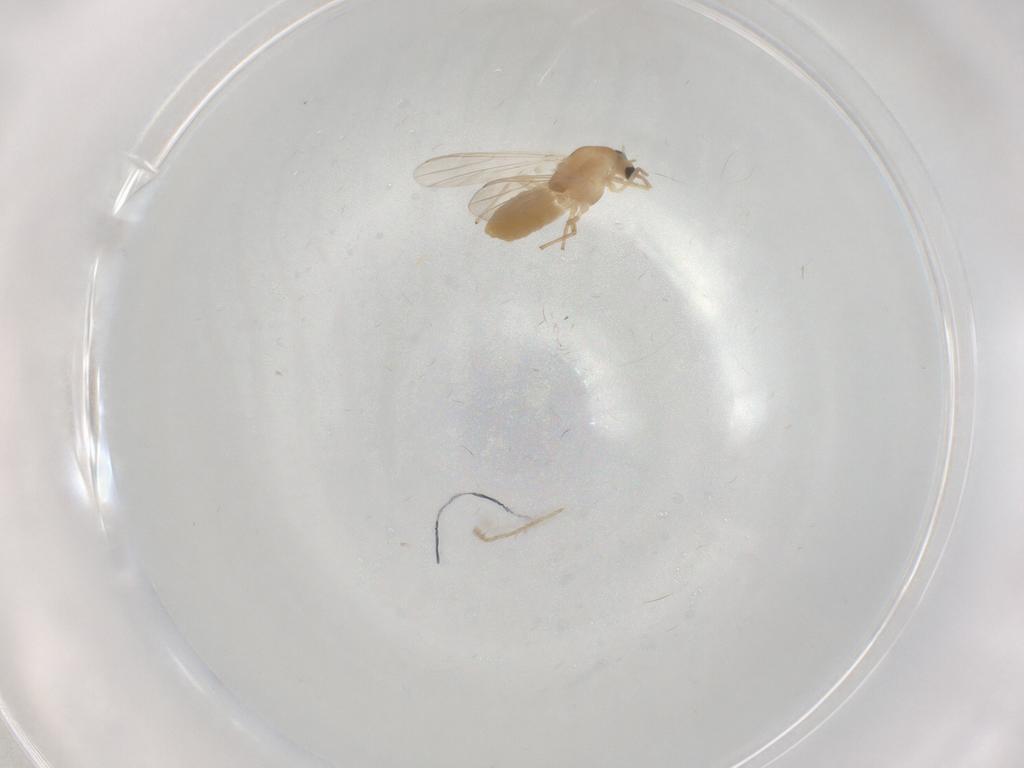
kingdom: Animalia
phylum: Arthropoda
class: Insecta
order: Diptera
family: Chironomidae
